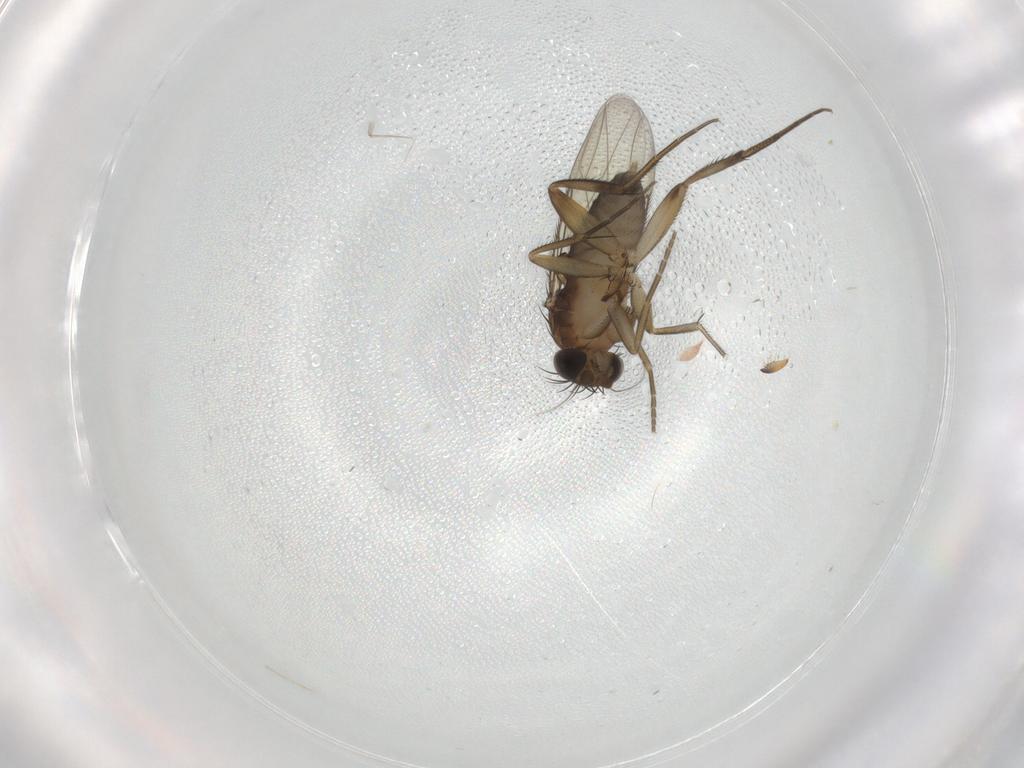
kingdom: Animalia
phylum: Arthropoda
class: Insecta
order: Diptera
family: Phoridae
